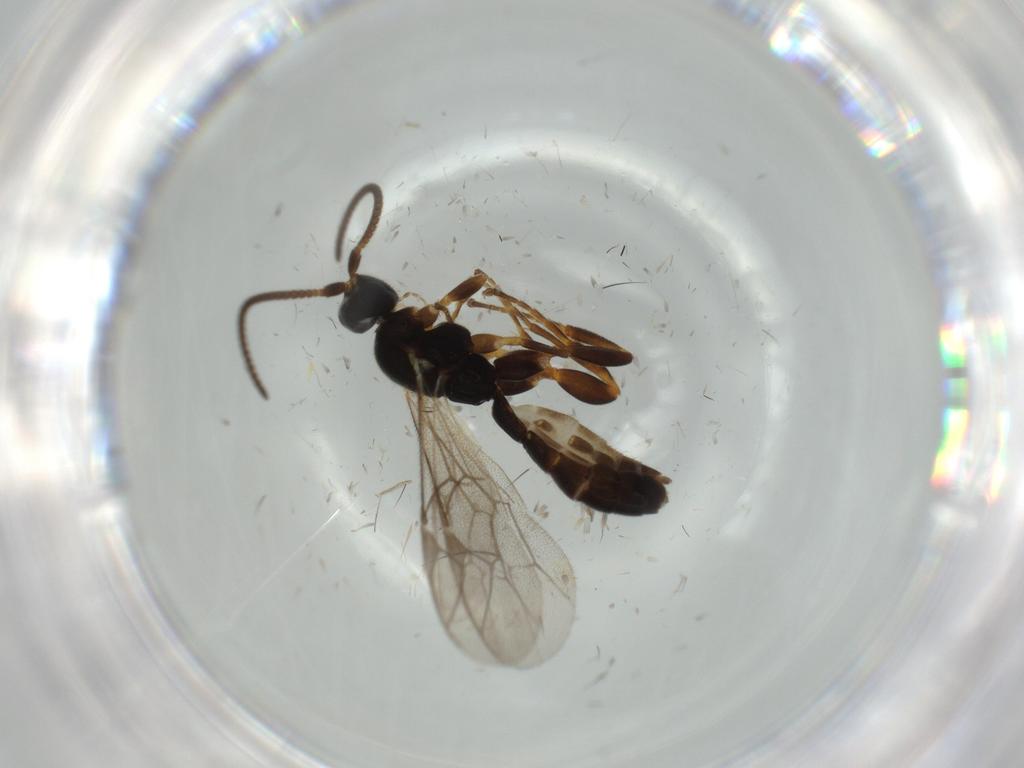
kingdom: Animalia
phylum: Arthropoda
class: Insecta
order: Hymenoptera
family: Ichneumonidae
